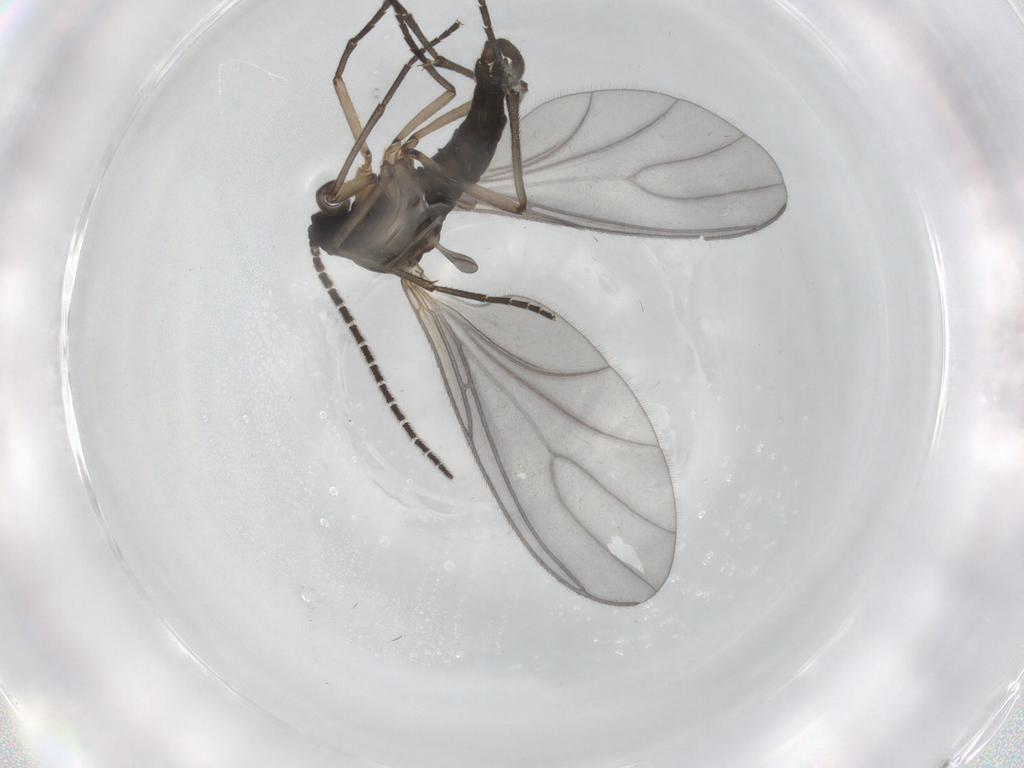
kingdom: Animalia
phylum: Arthropoda
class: Insecta
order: Diptera
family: Sciaridae
